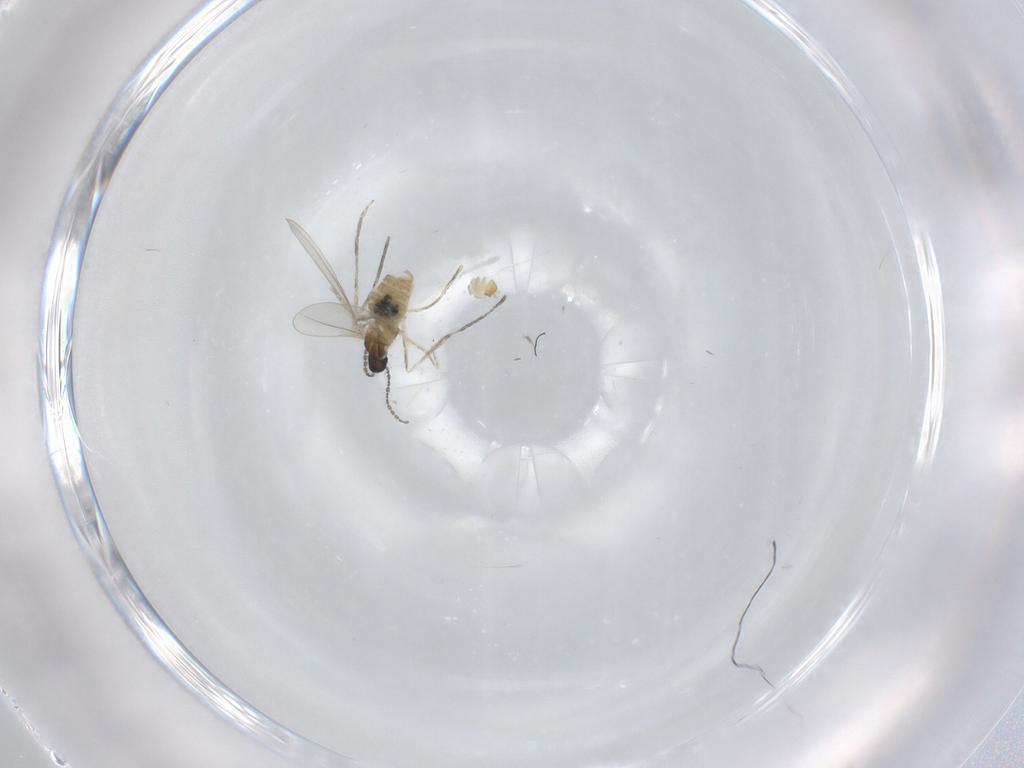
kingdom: Animalia
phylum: Arthropoda
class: Insecta
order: Diptera
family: Cecidomyiidae
